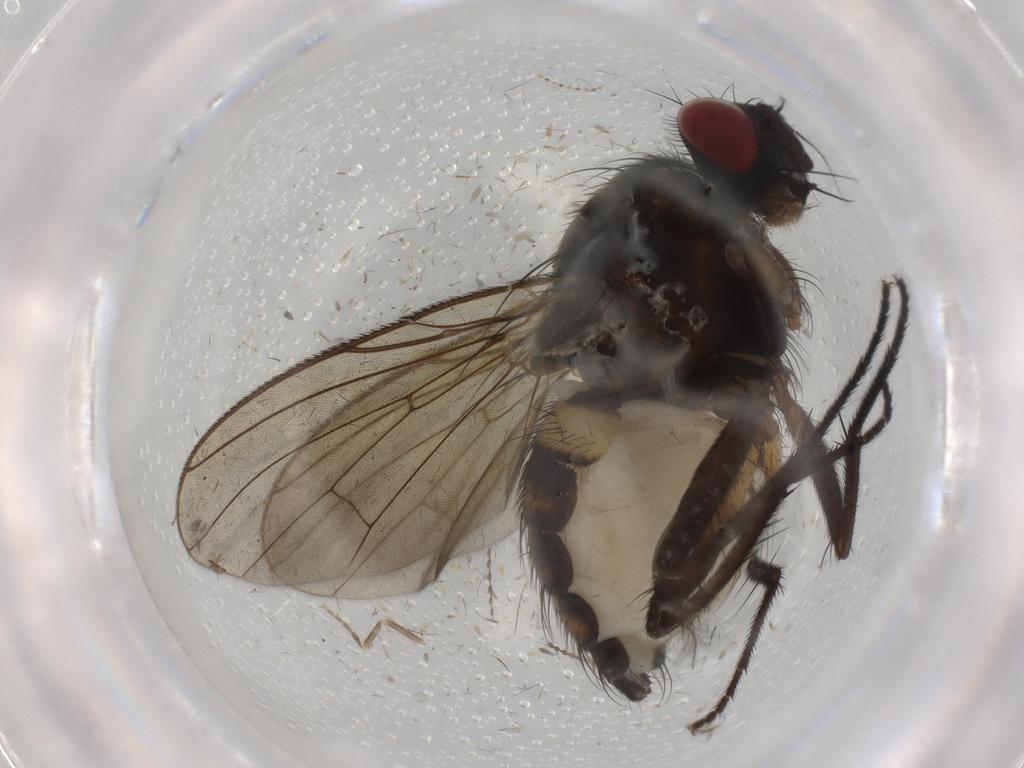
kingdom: Animalia
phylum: Arthropoda
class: Insecta
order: Diptera
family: Anthomyiidae
